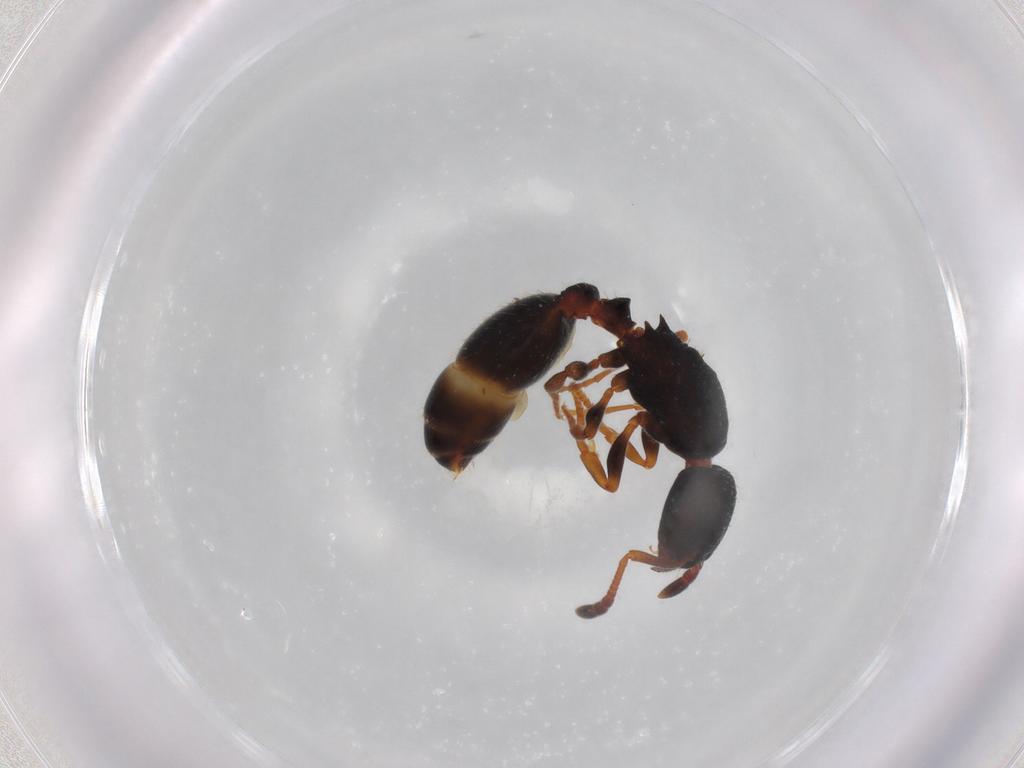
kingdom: Animalia
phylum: Arthropoda
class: Insecta
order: Hymenoptera
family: Formicidae
